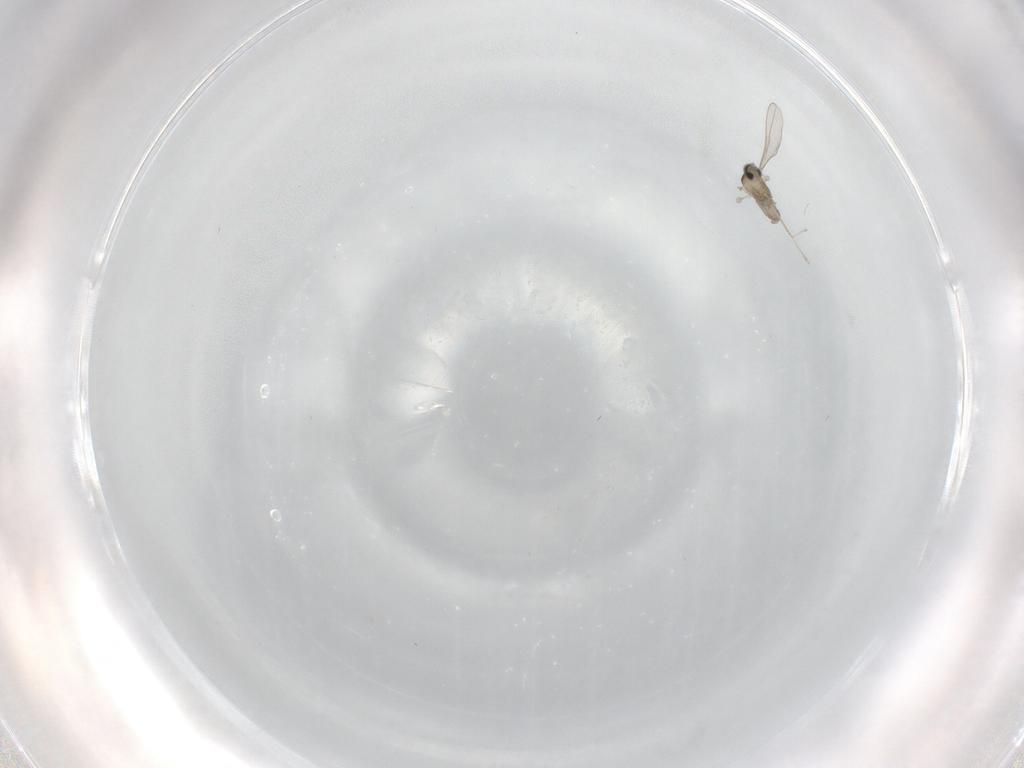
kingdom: Animalia
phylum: Arthropoda
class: Insecta
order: Diptera
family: Cecidomyiidae
